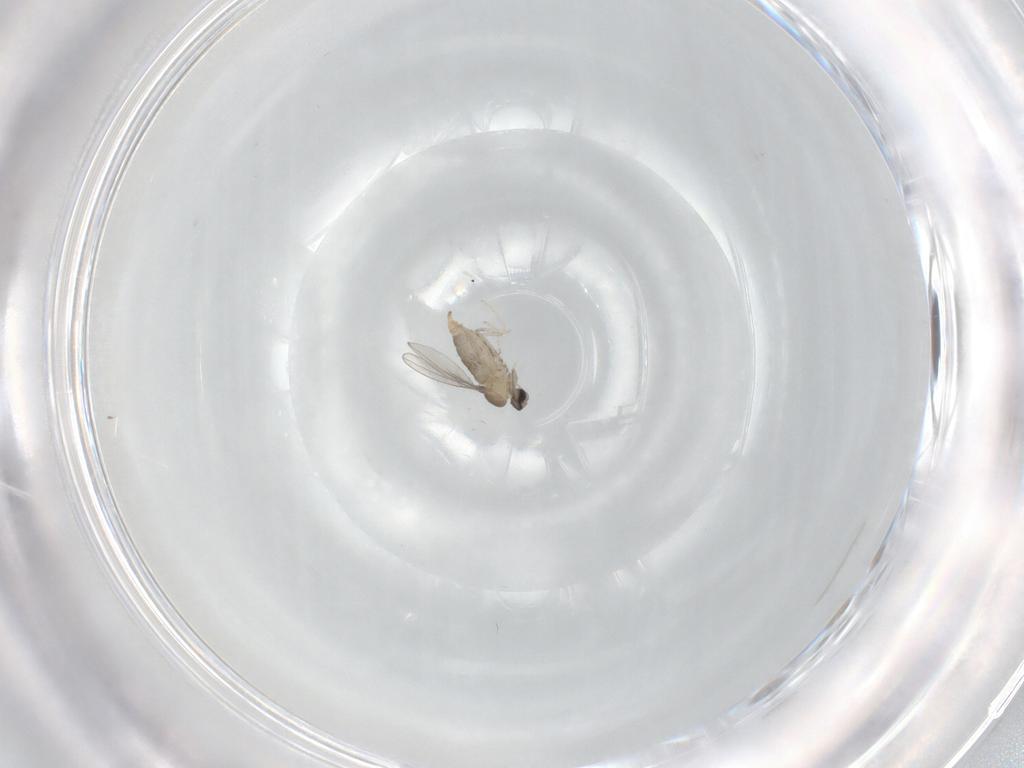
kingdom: Animalia
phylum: Arthropoda
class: Insecta
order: Diptera
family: Cecidomyiidae
